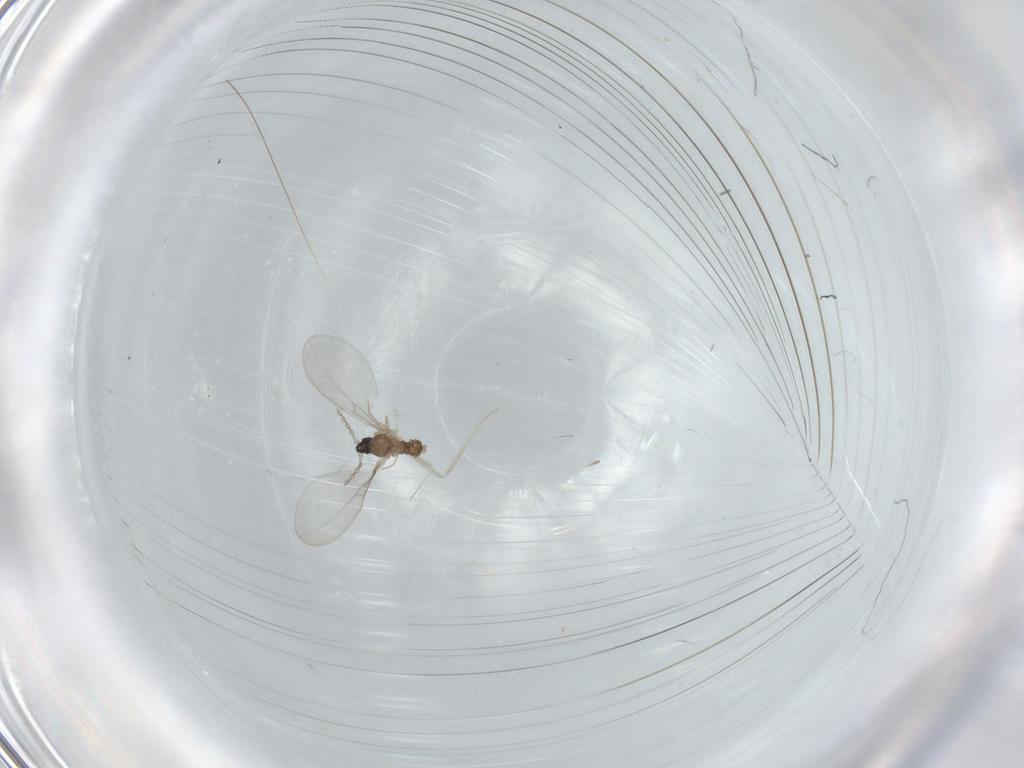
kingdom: Animalia
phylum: Arthropoda
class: Insecta
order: Diptera
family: Cecidomyiidae
